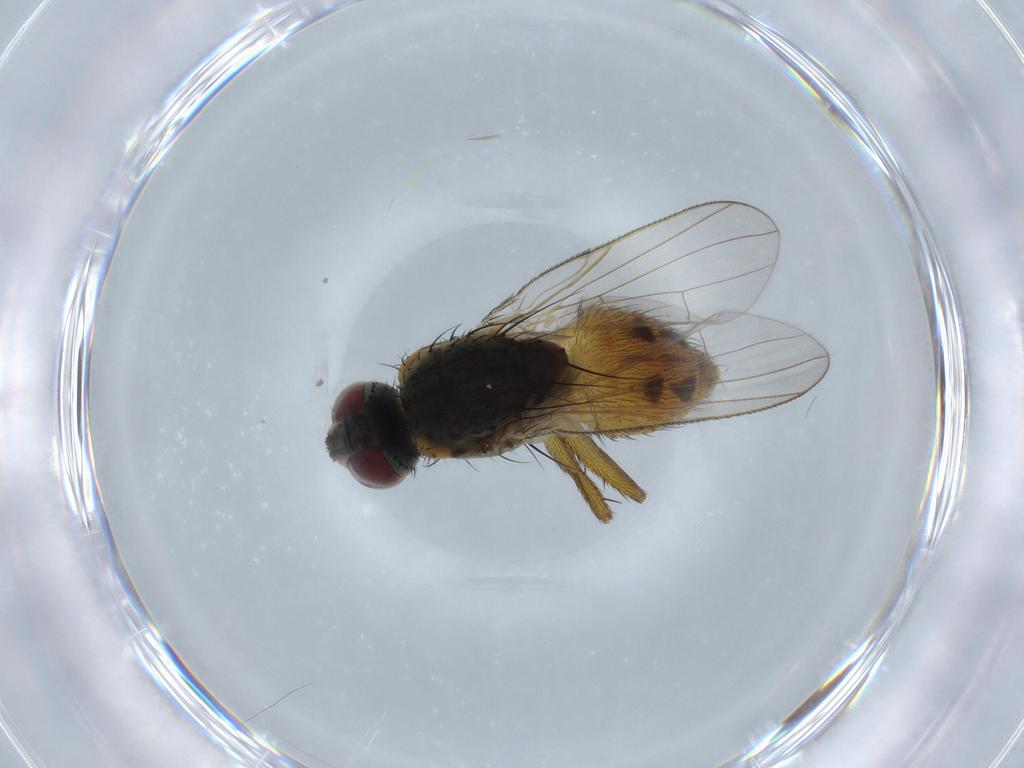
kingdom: Animalia
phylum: Arthropoda
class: Insecta
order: Diptera
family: Muscidae
